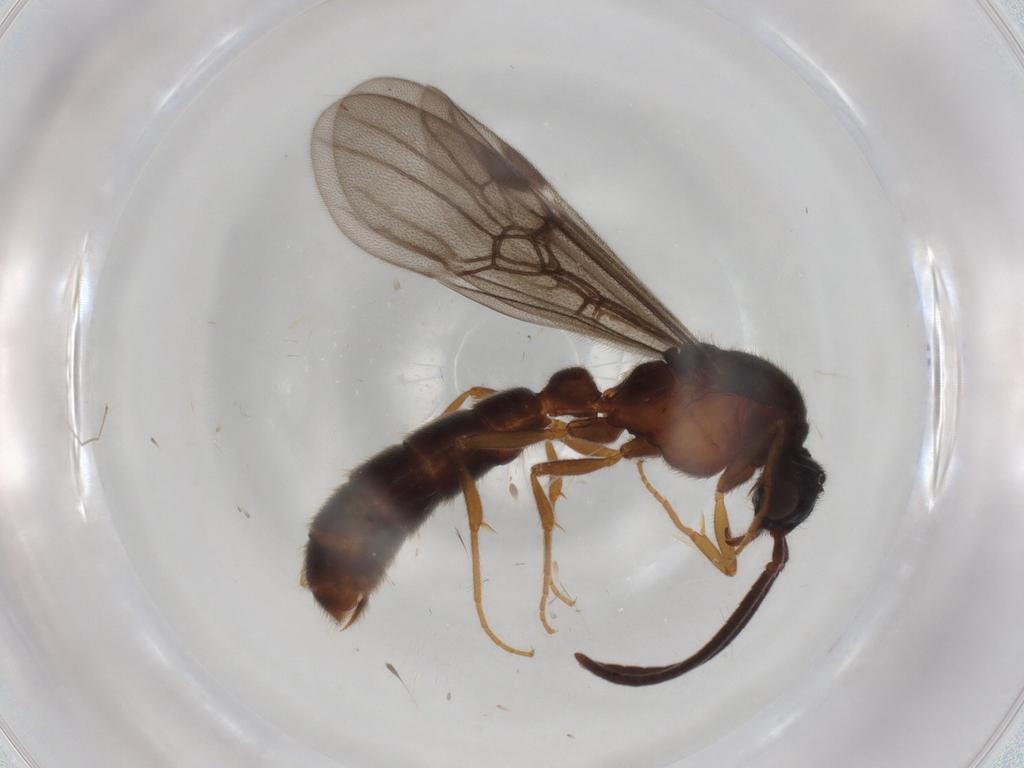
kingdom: Animalia
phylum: Arthropoda
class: Insecta
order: Hymenoptera
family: Formicidae
